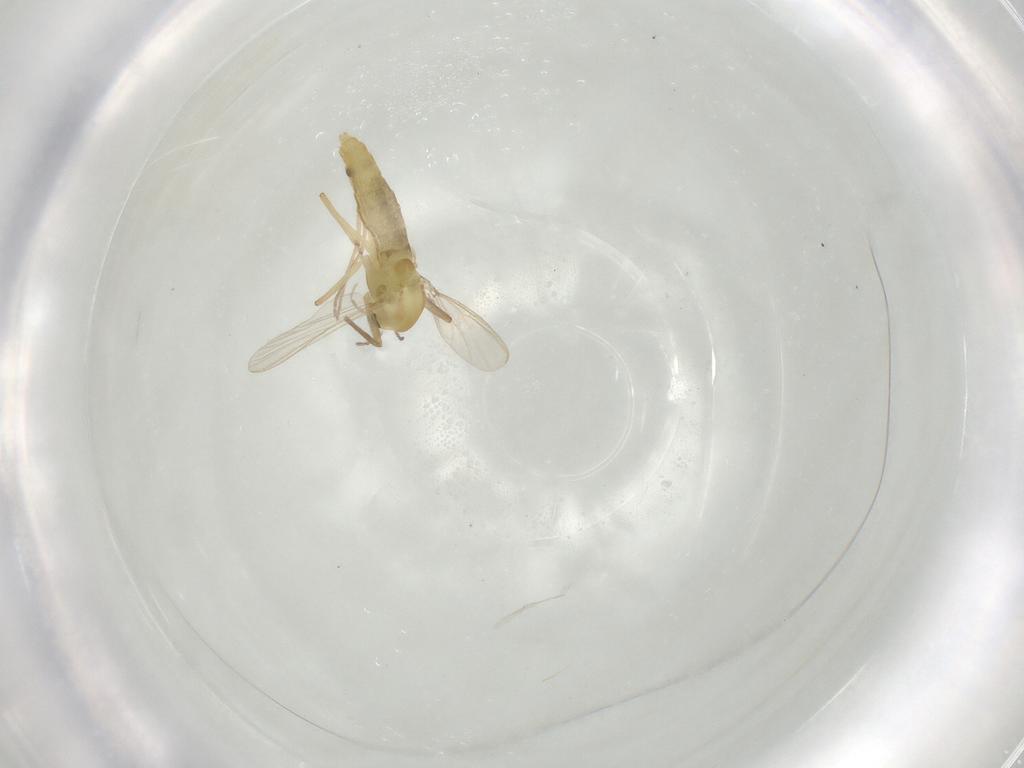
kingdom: Animalia
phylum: Arthropoda
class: Insecta
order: Diptera
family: Chironomidae
